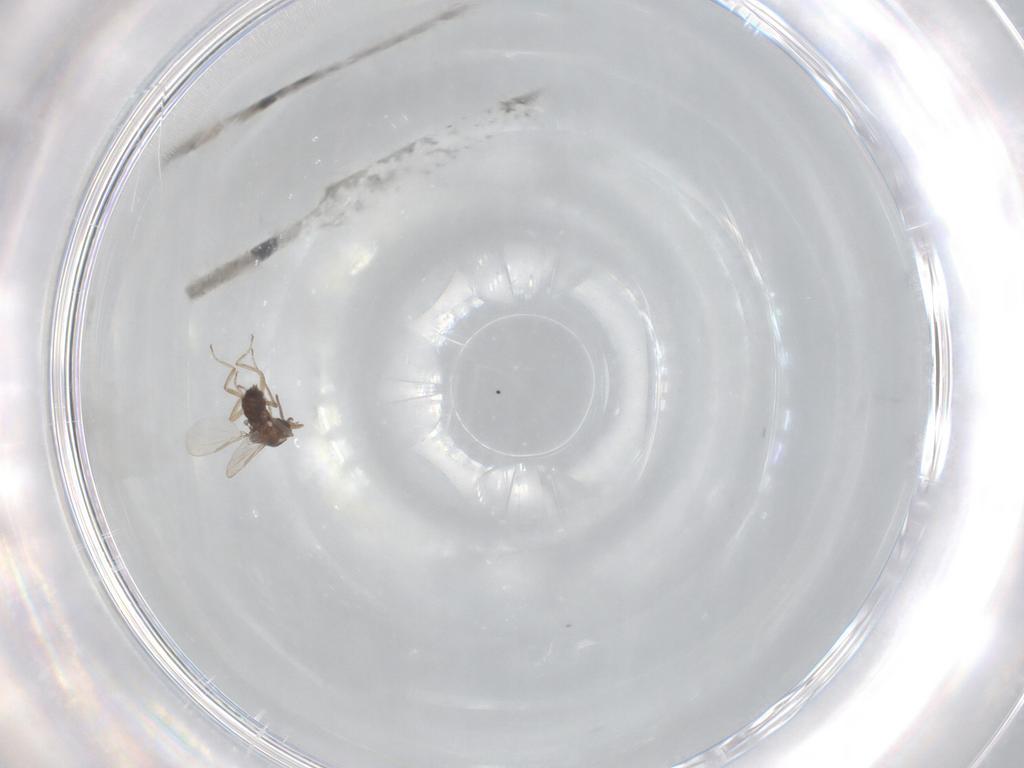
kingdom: Animalia
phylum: Arthropoda
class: Insecta
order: Diptera
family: Ceratopogonidae
